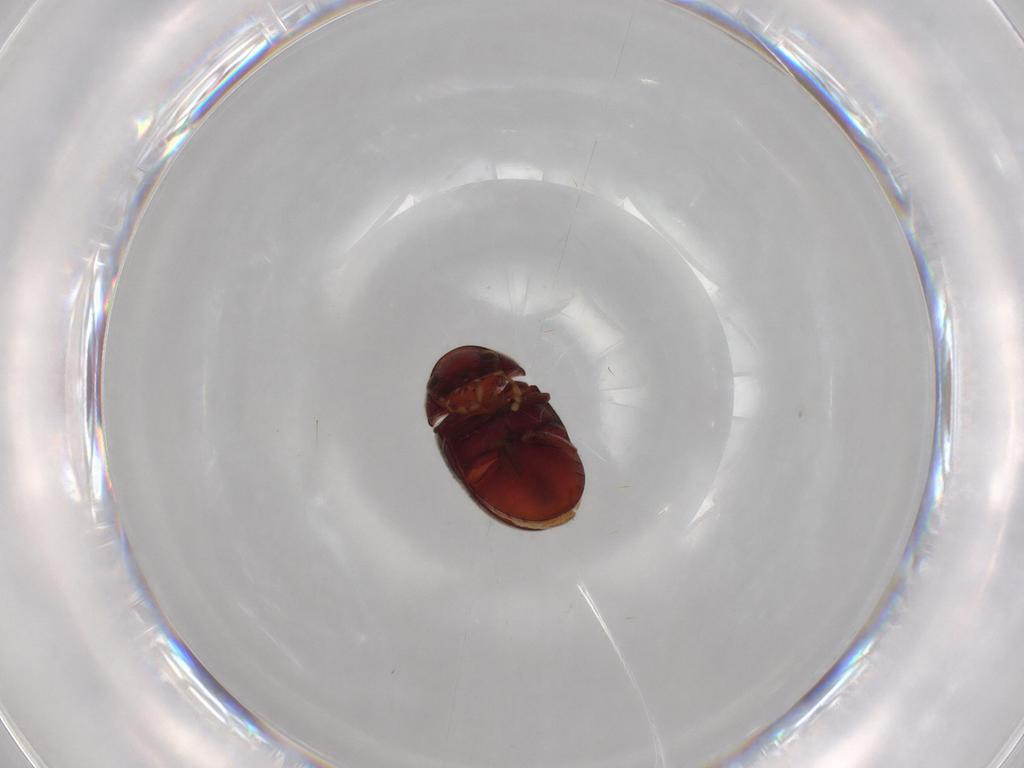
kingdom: Animalia
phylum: Arthropoda
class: Insecta
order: Coleoptera
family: Ptinidae
